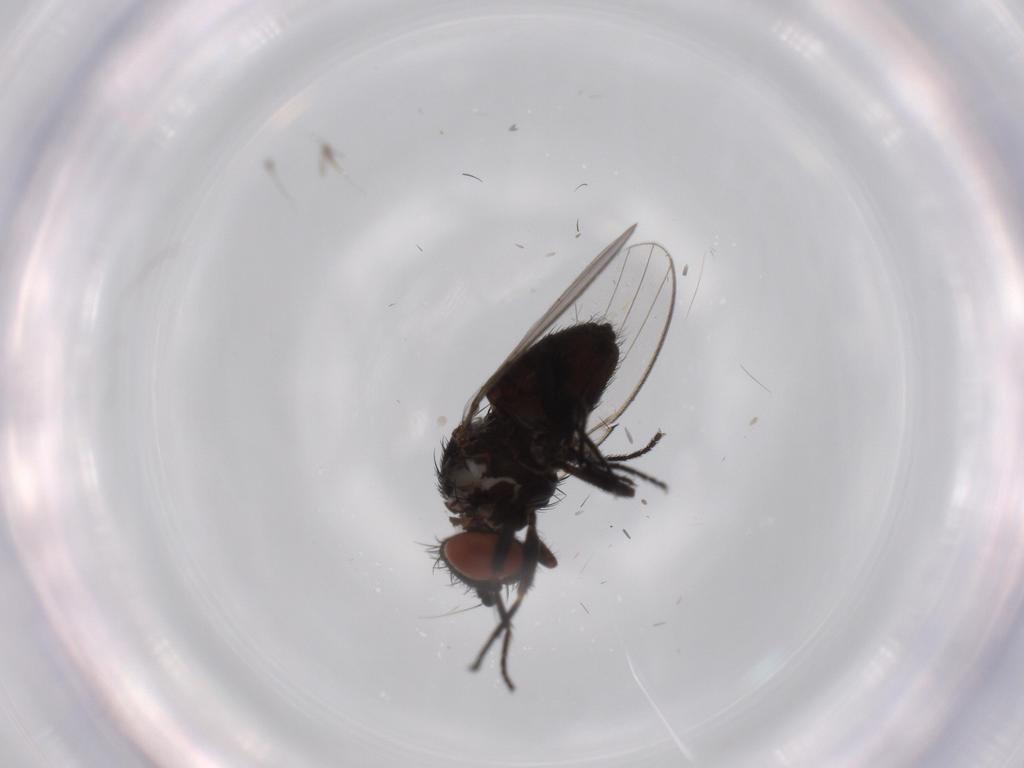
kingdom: Animalia
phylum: Arthropoda
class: Insecta
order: Diptera
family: Milichiidae
